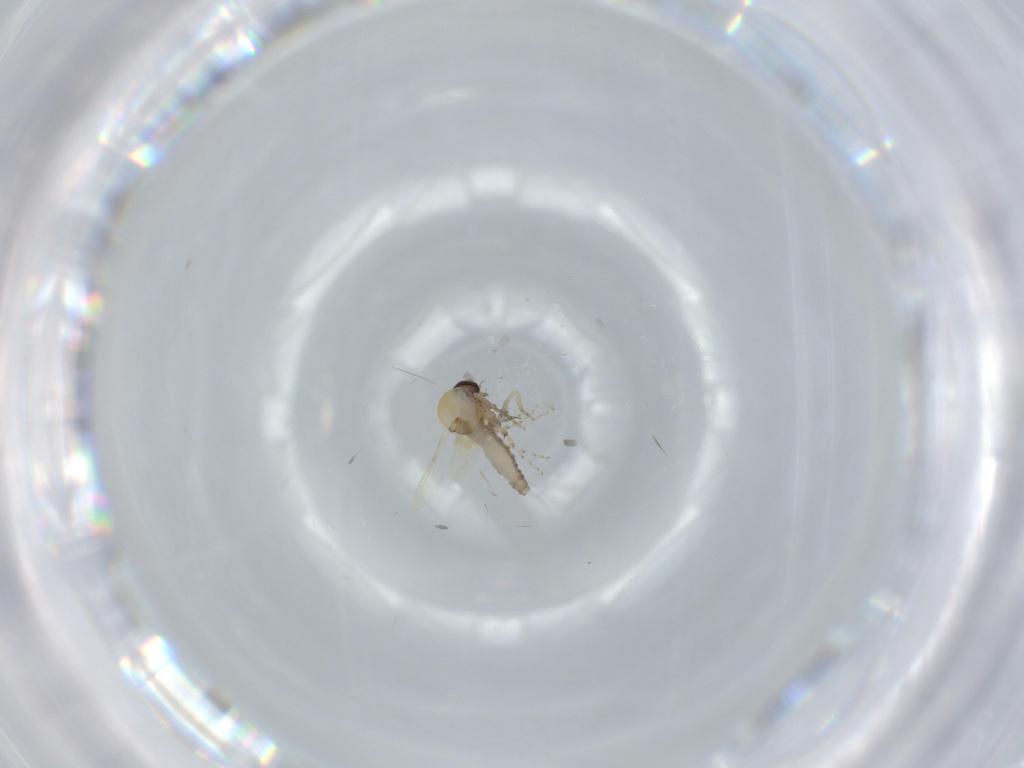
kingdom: Animalia
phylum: Arthropoda
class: Insecta
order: Diptera
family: Ceratopogonidae
